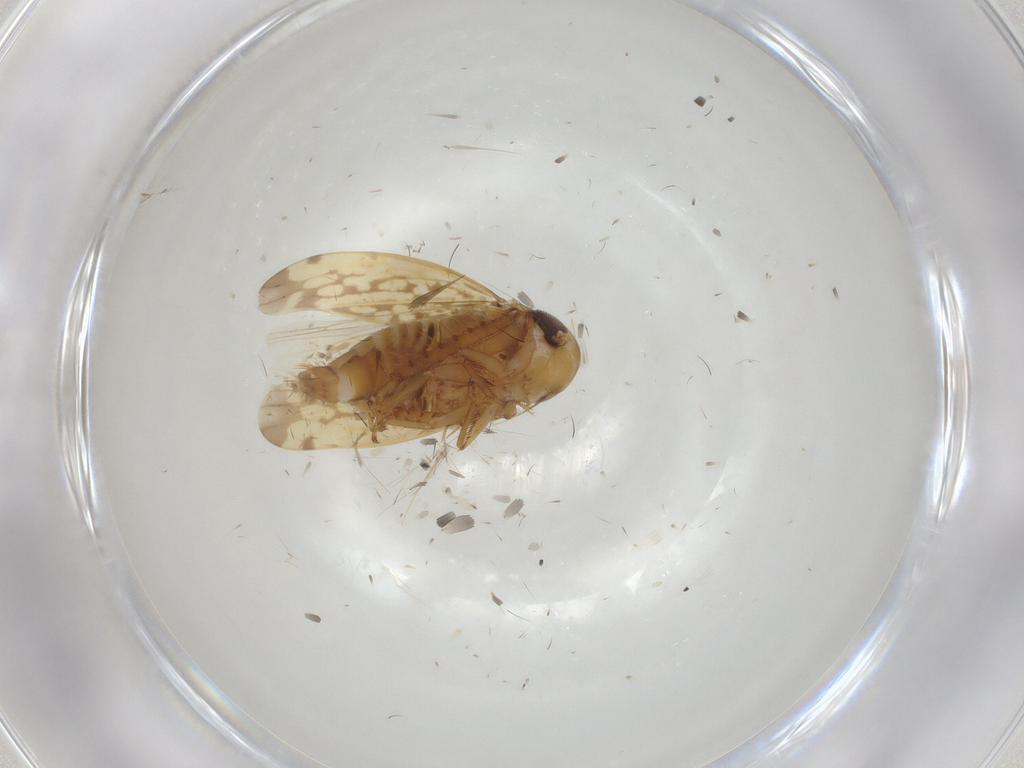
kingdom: Animalia
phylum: Arthropoda
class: Insecta
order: Hemiptera
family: Cicadellidae
